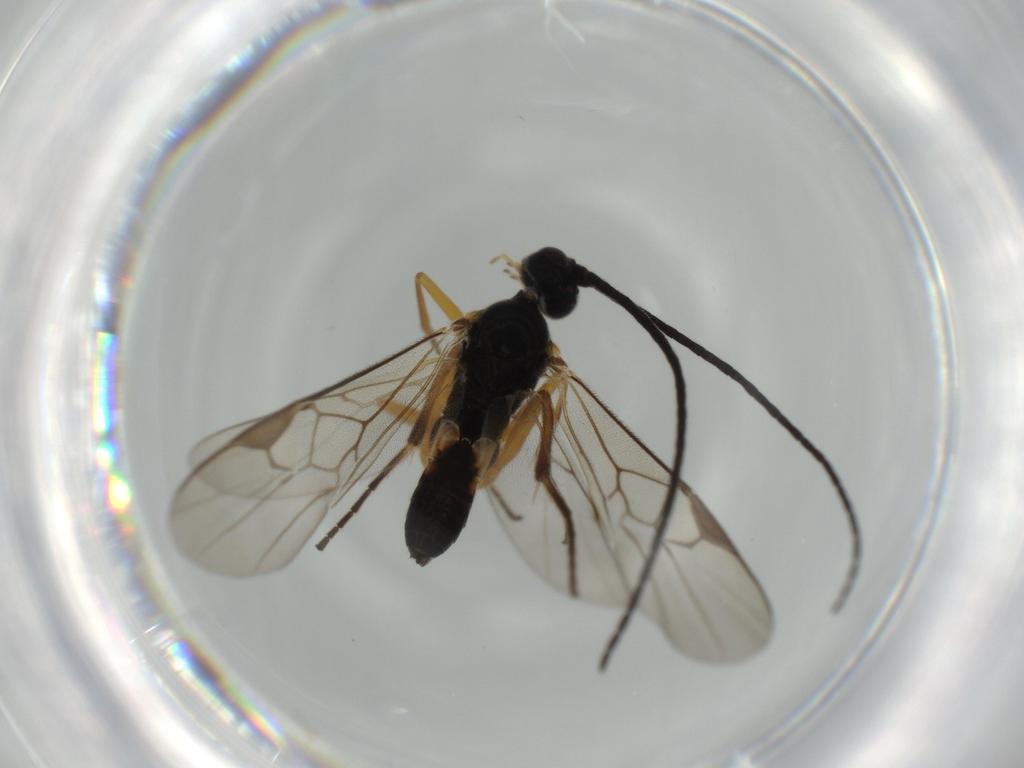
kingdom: Animalia
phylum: Arthropoda
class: Insecta
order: Hymenoptera
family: Braconidae
